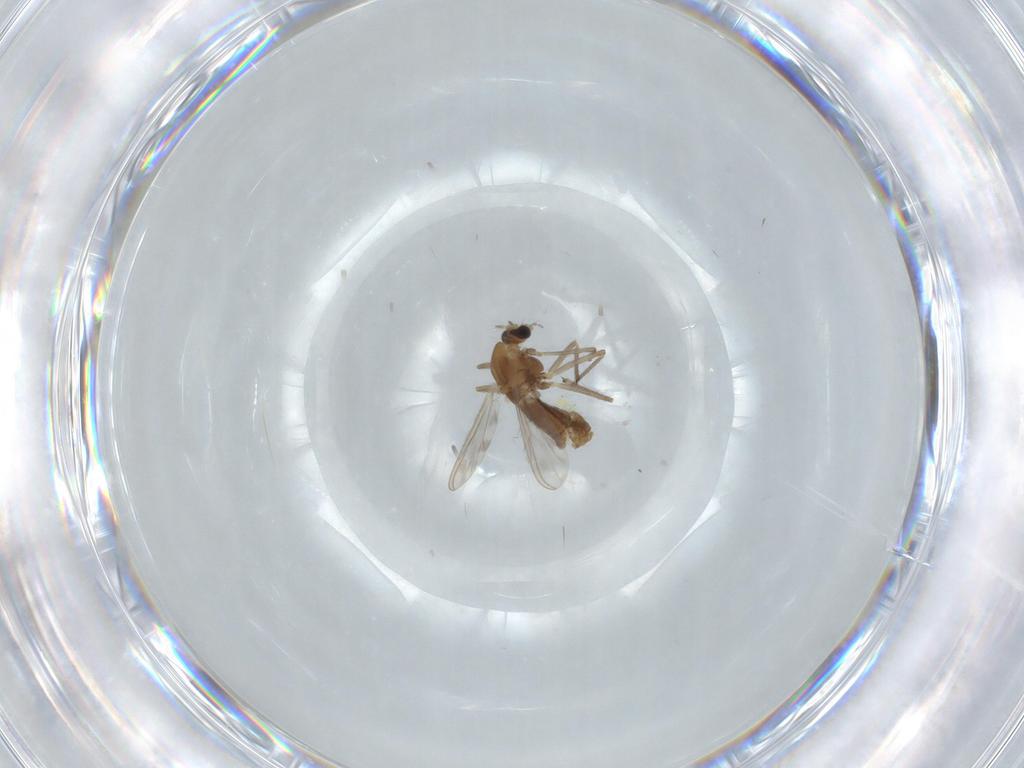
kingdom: Animalia
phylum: Arthropoda
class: Insecta
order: Diptera
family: Chironomidae
